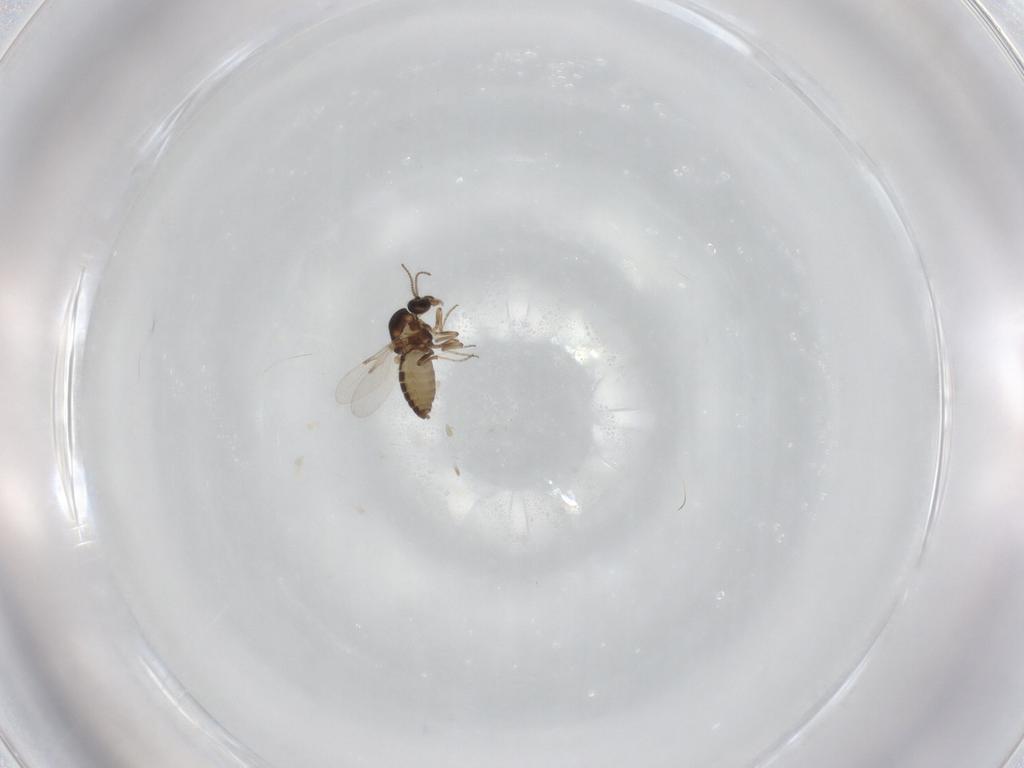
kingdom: Animalia
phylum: Arthropoda
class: Insecta
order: Diptera
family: Ceratopogonidae
